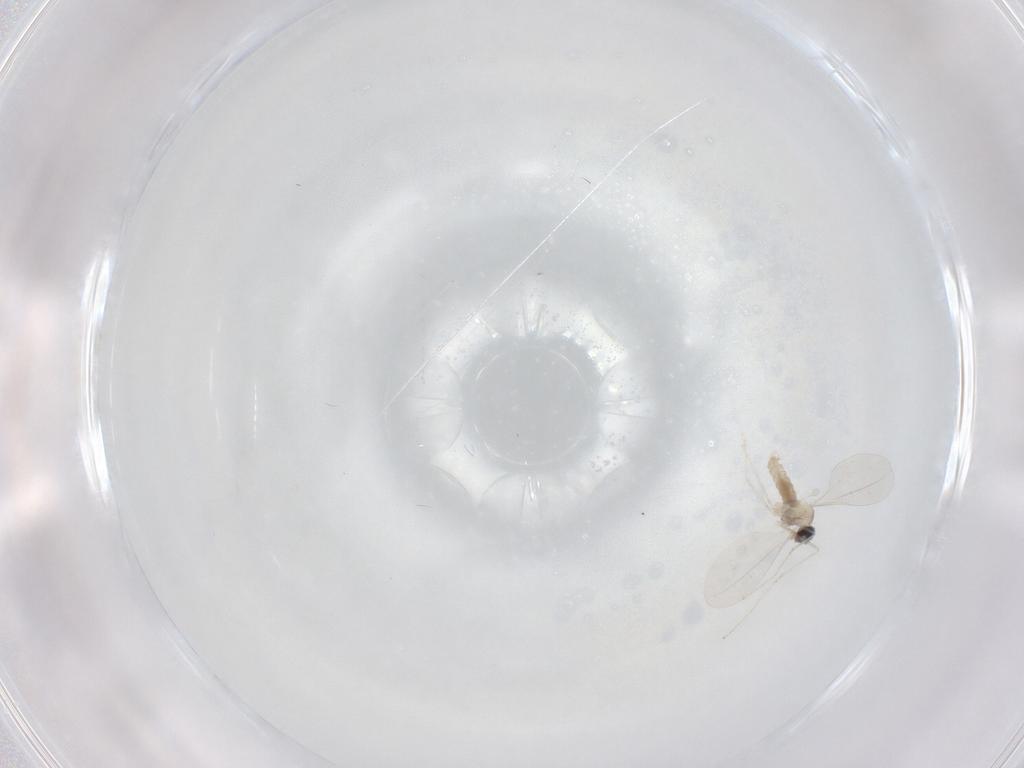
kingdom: Animalia
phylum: Arthropoda
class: Insecta
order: Diptera
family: Cecidomyiidae
